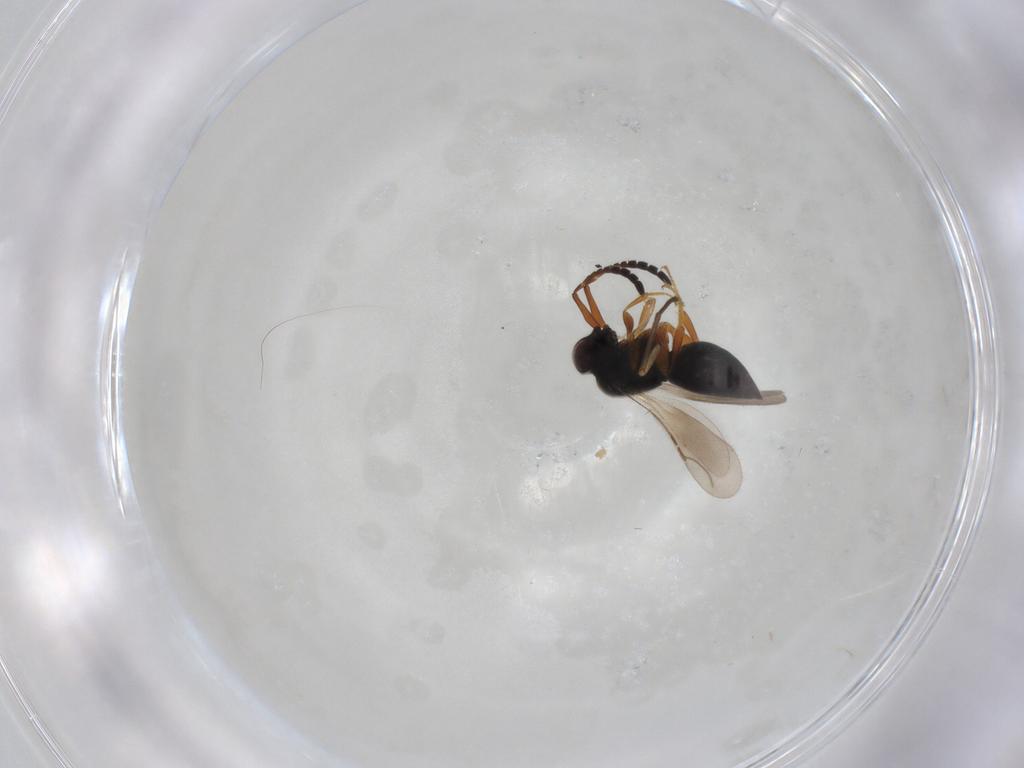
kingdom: Animalia
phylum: Arthropoda
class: Insecta
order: Hymenoptera
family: Ceraphronidae
